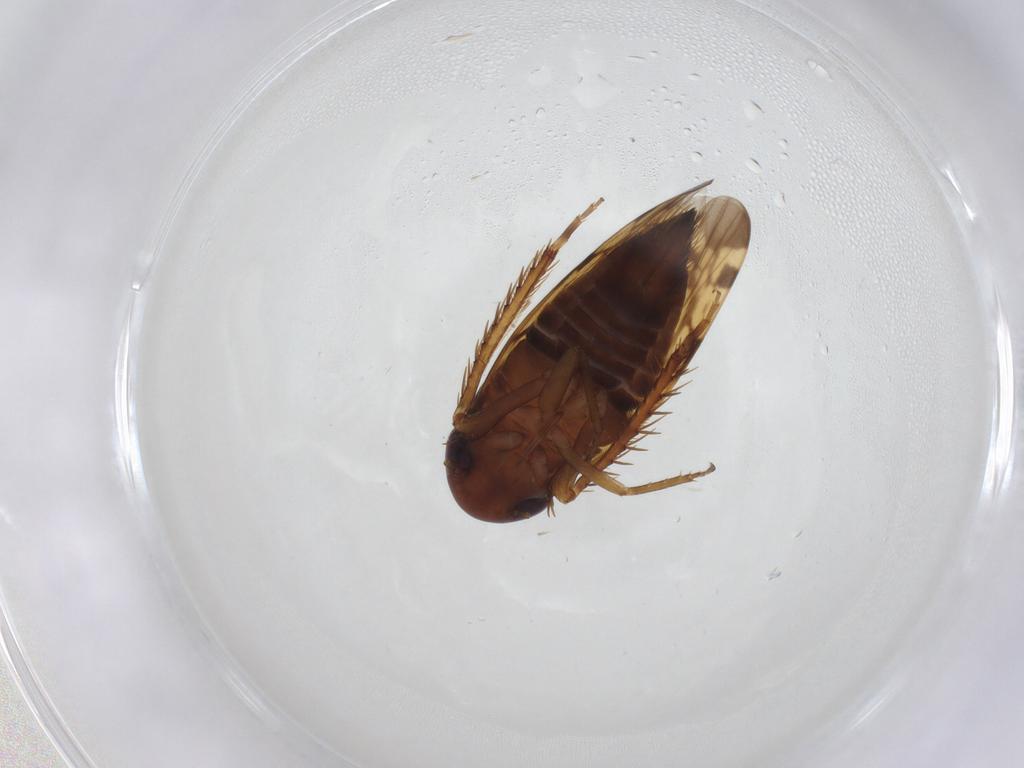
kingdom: Animalia
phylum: Arthropoda
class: Insecta
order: Hemiptera
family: Cicadellidae
